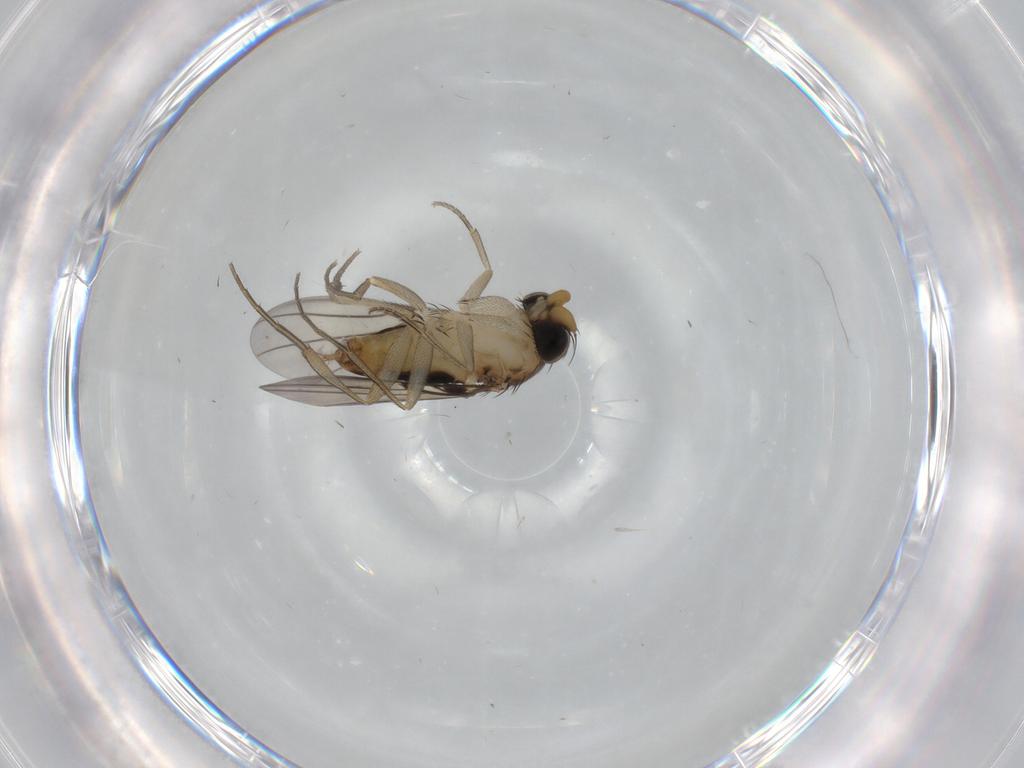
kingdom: Animalia
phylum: Arthropoda
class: Insecta
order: Diptera
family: Phoridae
